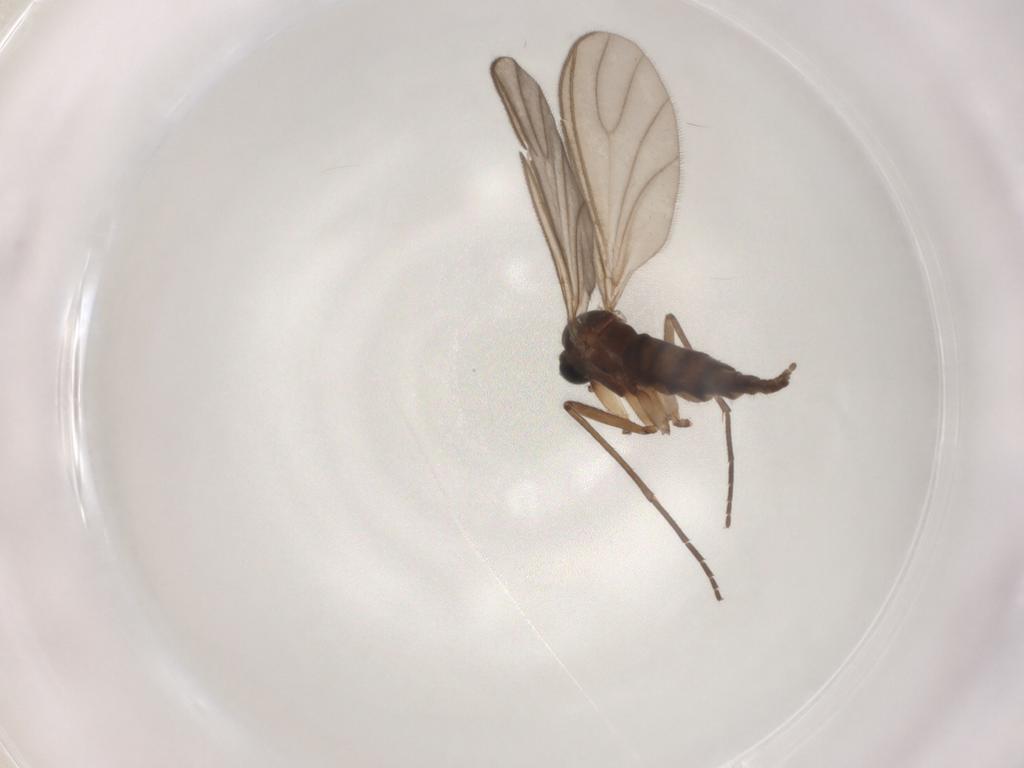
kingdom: Animalia
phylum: Arthropoda
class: Insecta
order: Diptera
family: Sciaridae
